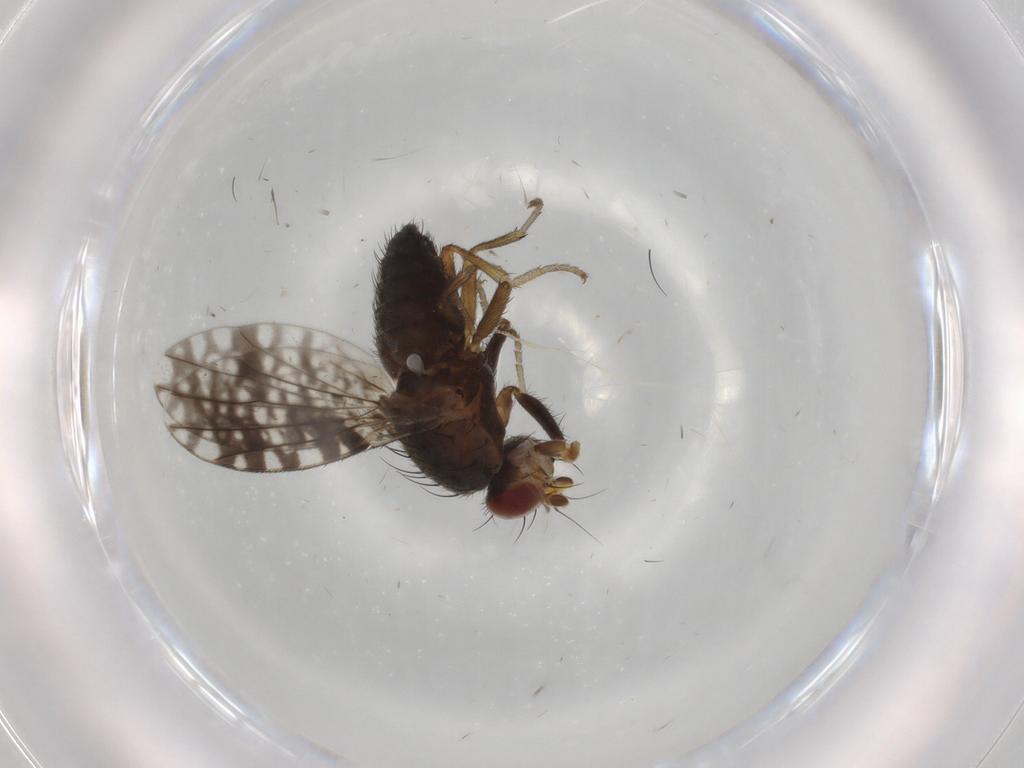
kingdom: Animalia
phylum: Arthropoda
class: Insecta
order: Diptera
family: Tephritidae
